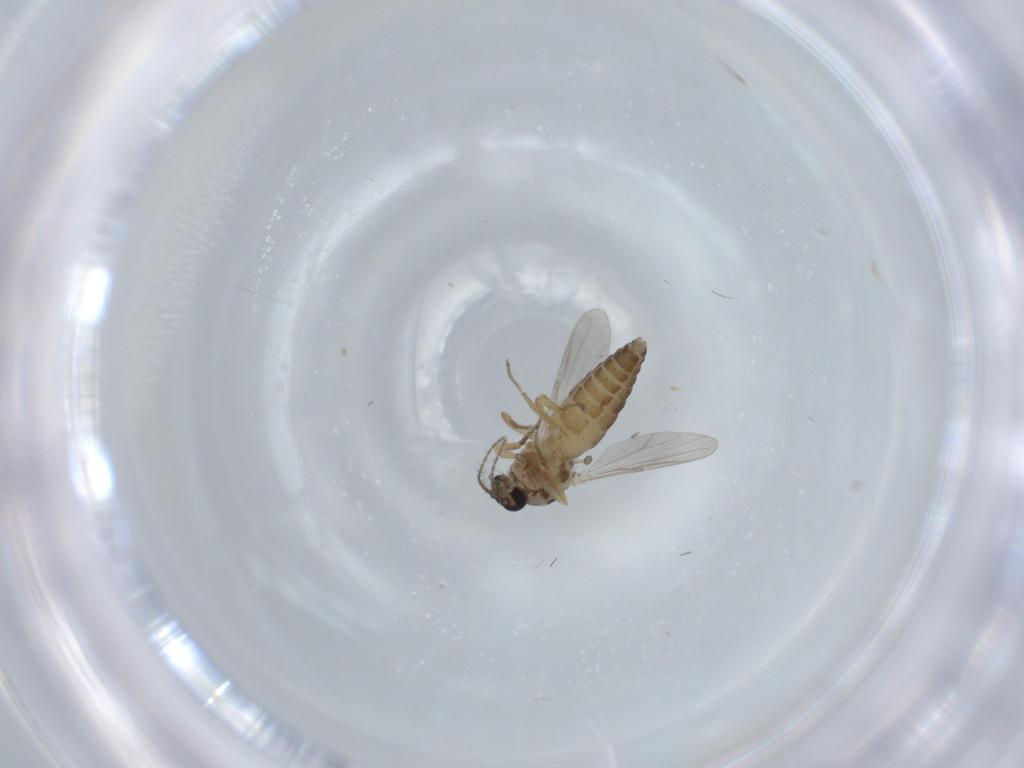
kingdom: Animalia
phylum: Arthropoda
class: Insecta
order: Diptera
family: Ceratopogonidae
